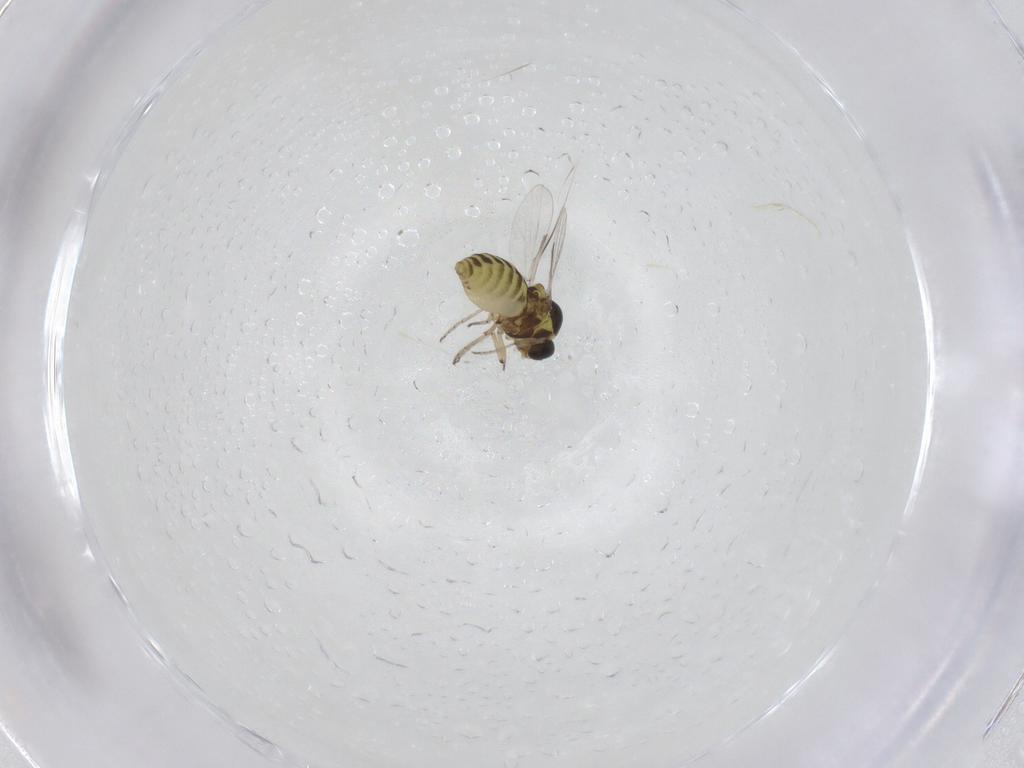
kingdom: Animalia
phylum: Arthropoda
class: Insecta
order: Diptera
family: Ceratopogonidae
